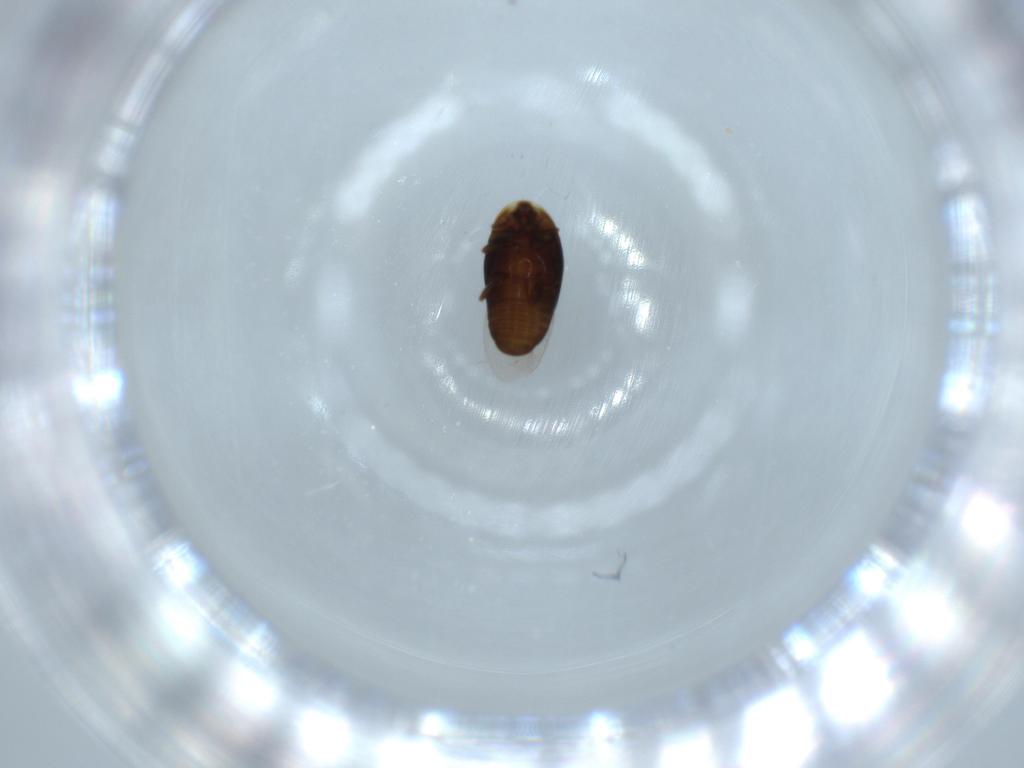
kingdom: Animalia
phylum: Arthropoda
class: Insecta
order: Coleoptera
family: Corylophidae
